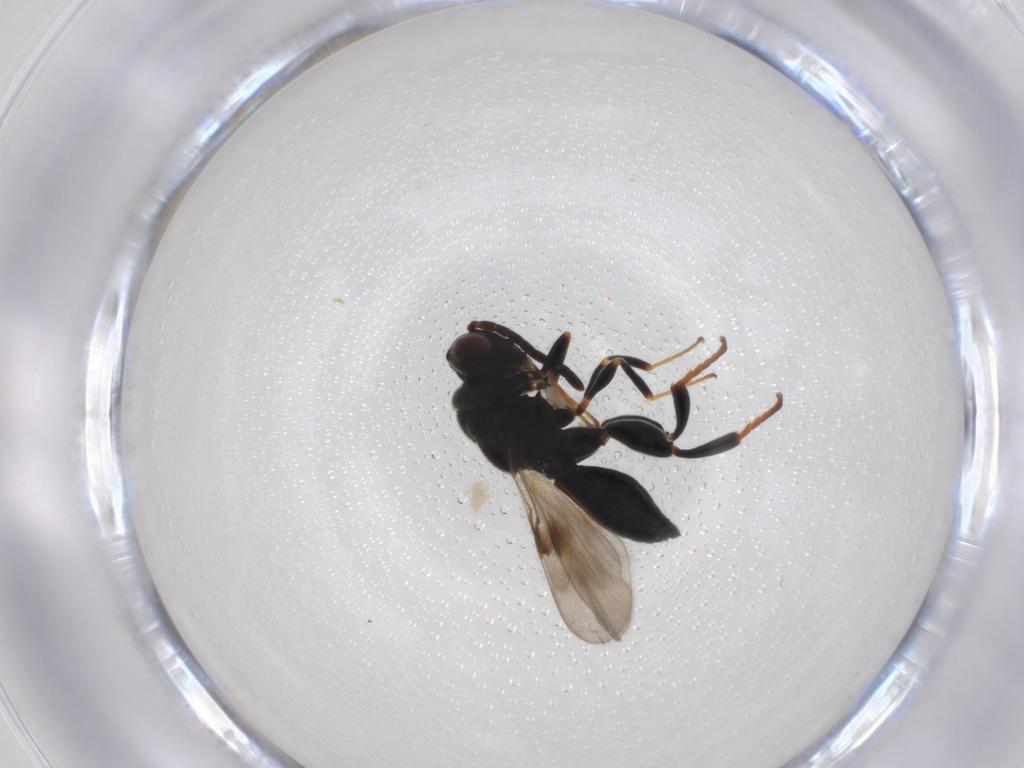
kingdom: Animalia
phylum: Arthropoda
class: Insecta
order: Hymenoptera
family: Chalcididae
